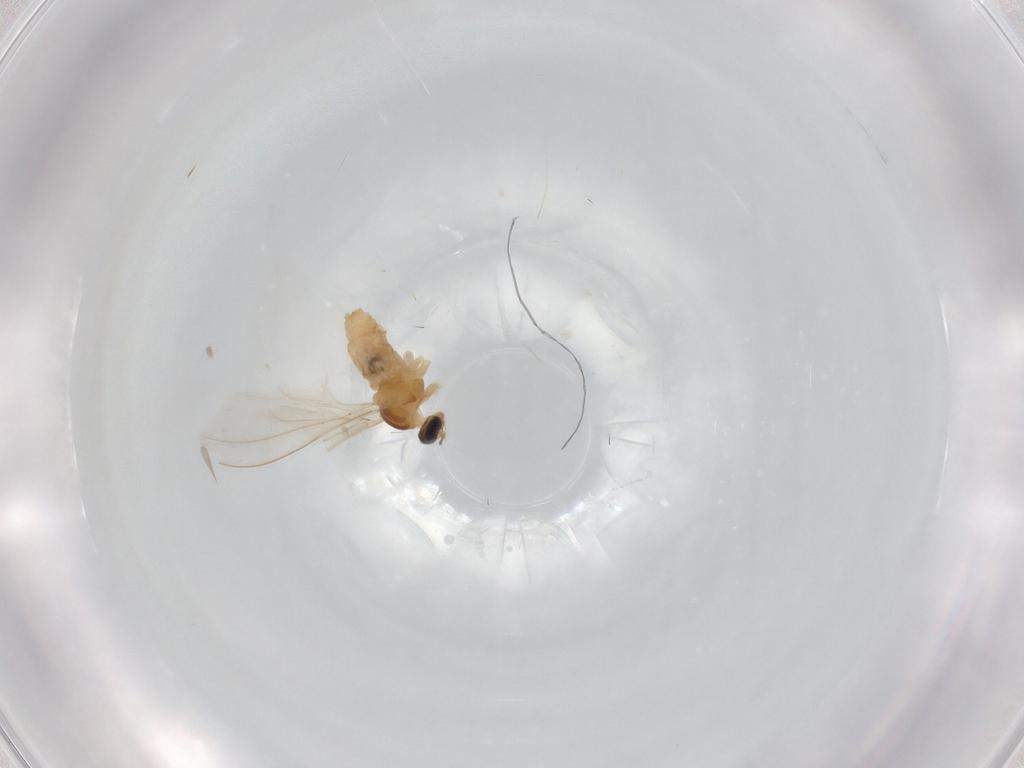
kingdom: Animalia
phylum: Arthropoda
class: Insecta
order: Diptera
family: Cecidomyiidae
